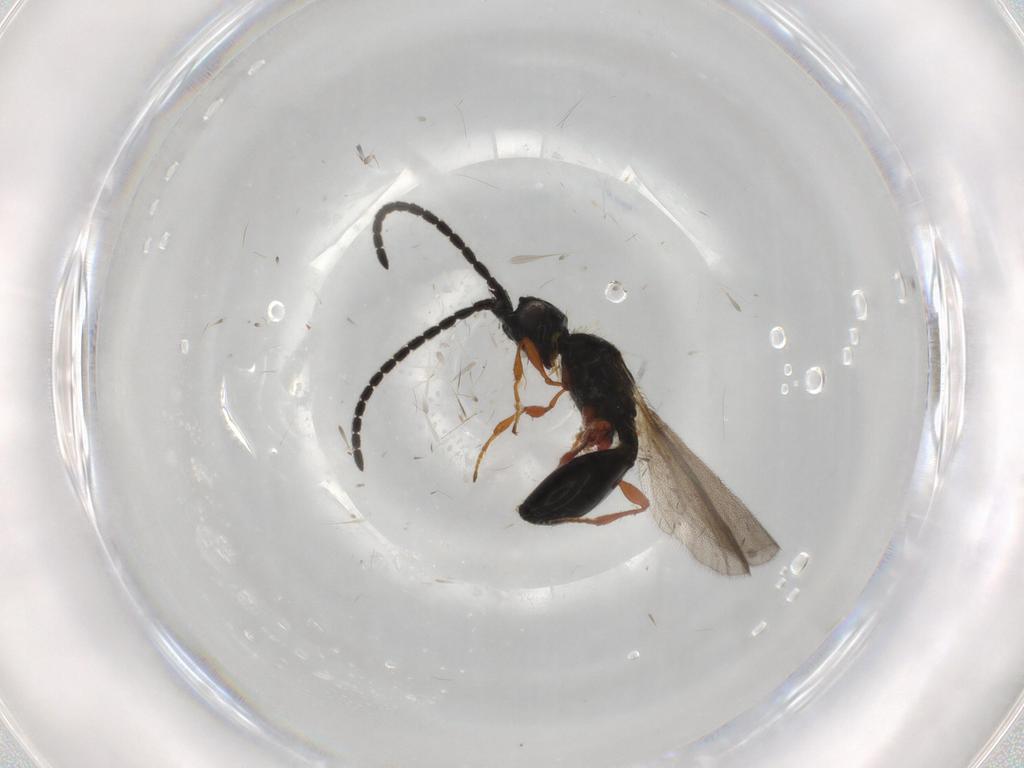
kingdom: Animalia
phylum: Arthropoda
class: Insecta
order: Hymenoptera
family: Diapriidae
